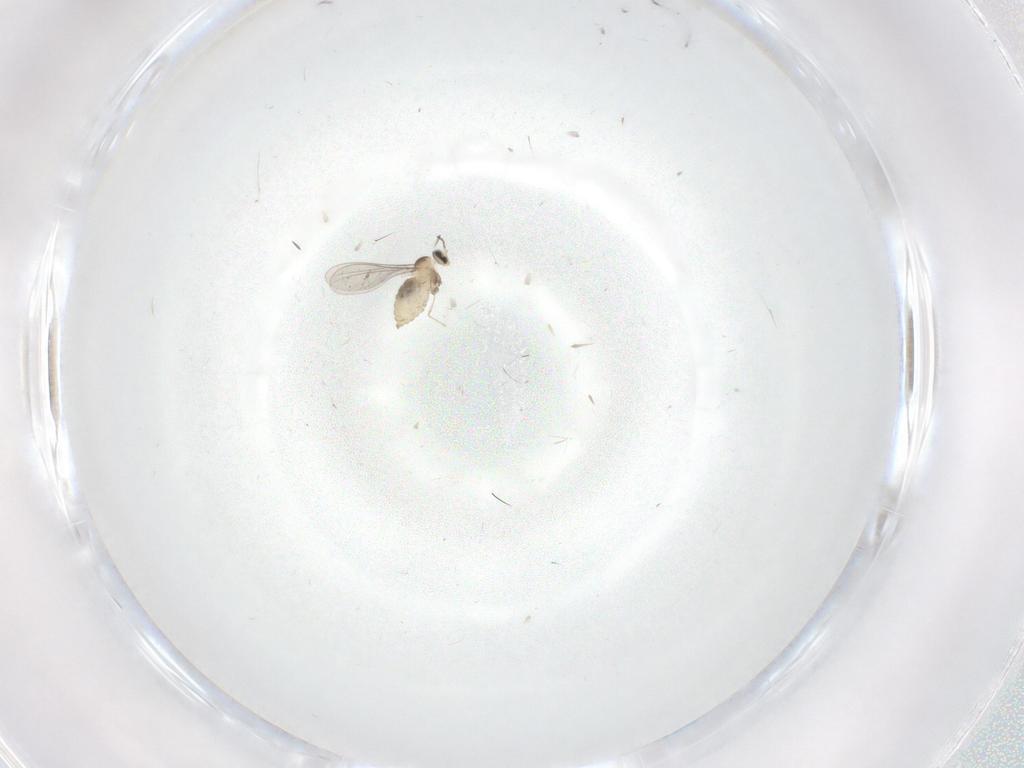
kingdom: Animalia
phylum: Arthropoda
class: Insecta
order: Diptera
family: Cecidomyiidae
